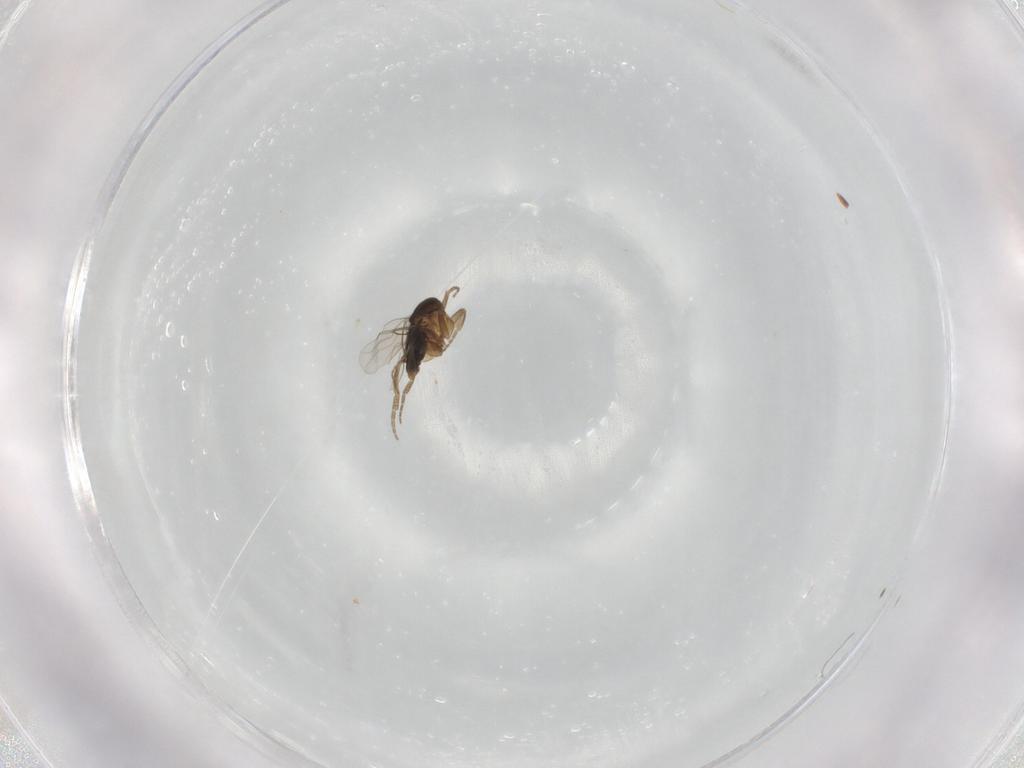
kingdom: Animalia
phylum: Arthropoda
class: Insecta
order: Diptera
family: Phoridae
